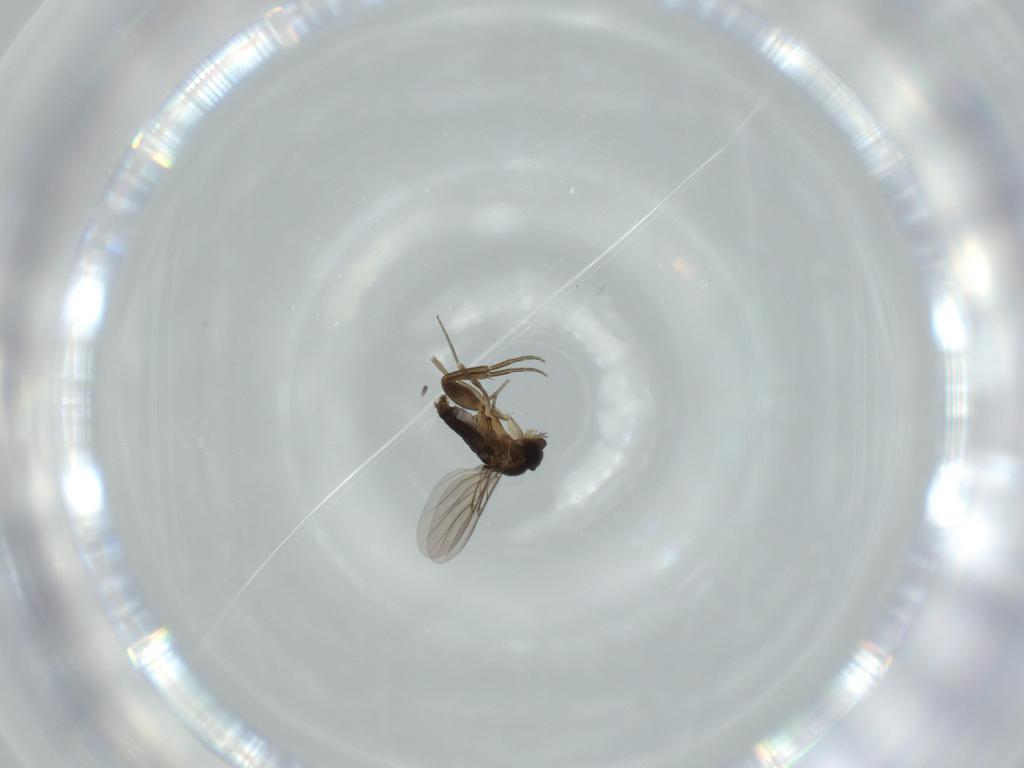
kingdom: Animalia
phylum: Arthropoda
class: Insecta
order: Diptera
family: Phoridae
